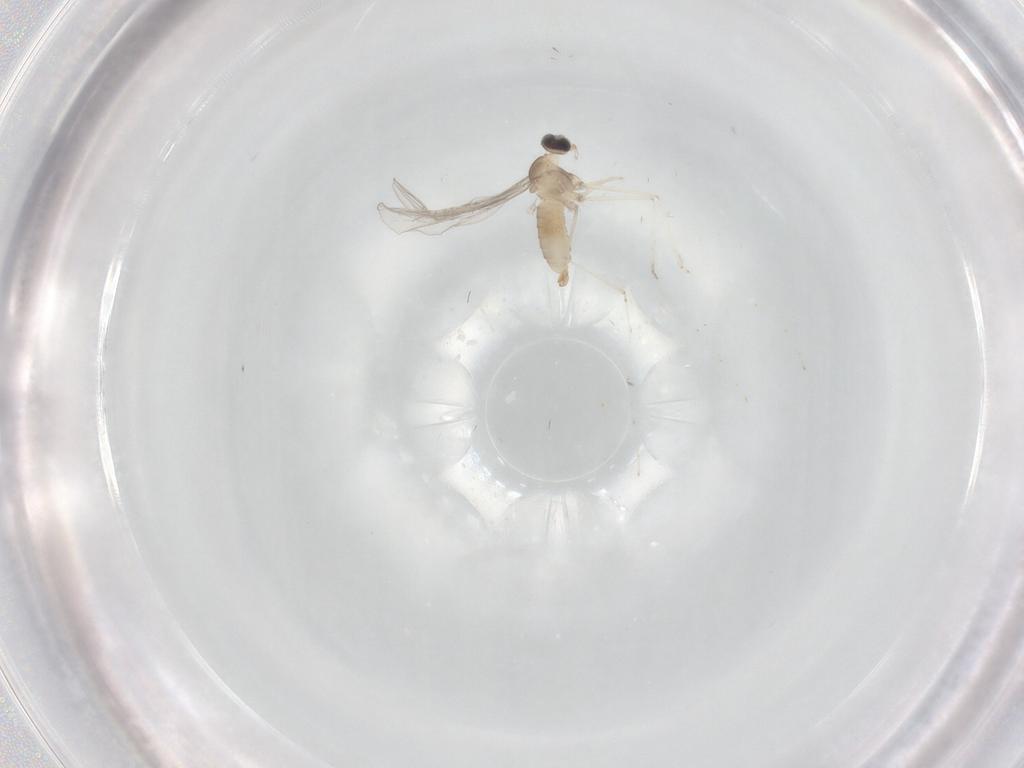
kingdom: Animalia
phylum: Arthropoda
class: Insecta
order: Diptera
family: Cecidomyiidae
